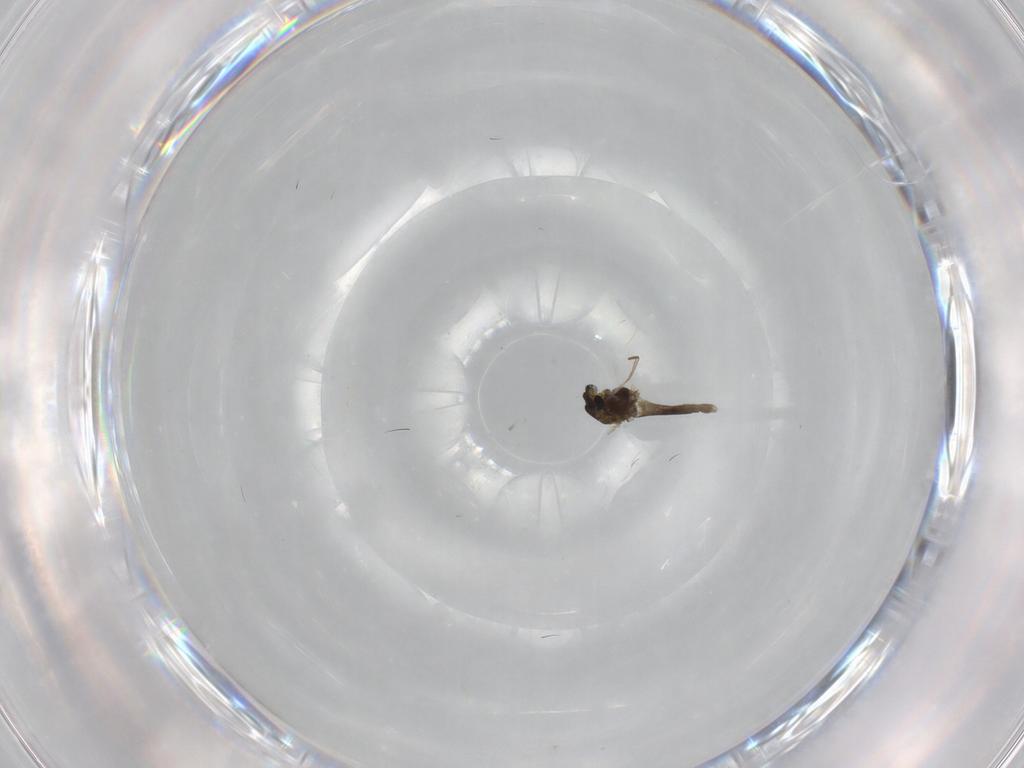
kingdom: Animalia
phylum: Arthropoda
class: Insecta
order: Diptera
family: Chironomidae
